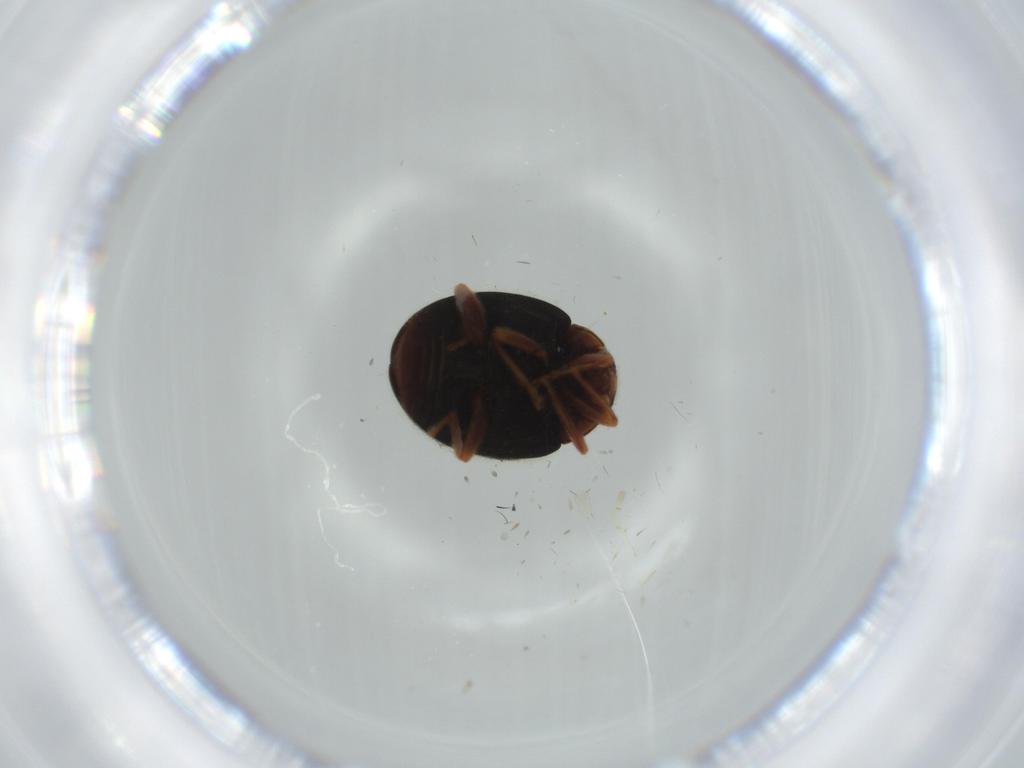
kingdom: Animalia
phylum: Arthropoda
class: Insecta
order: Coleoptera
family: Coccinellidae
